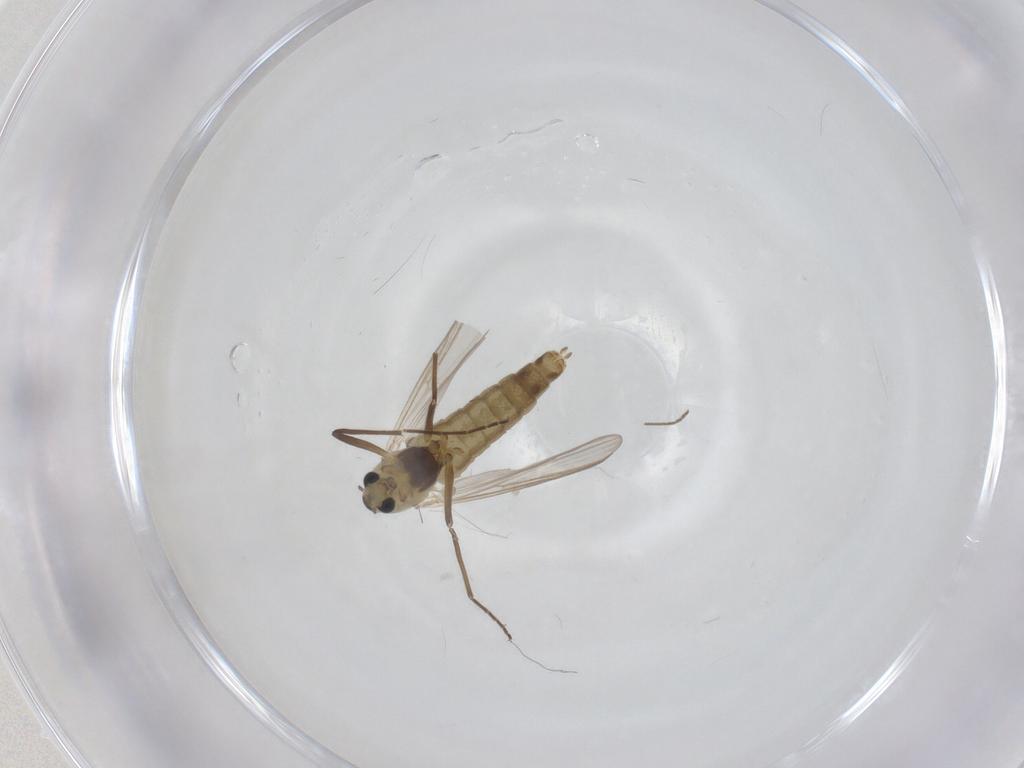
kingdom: Animalia
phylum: Arthropoda
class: Insecta
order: Diptera
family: Chironomidae
